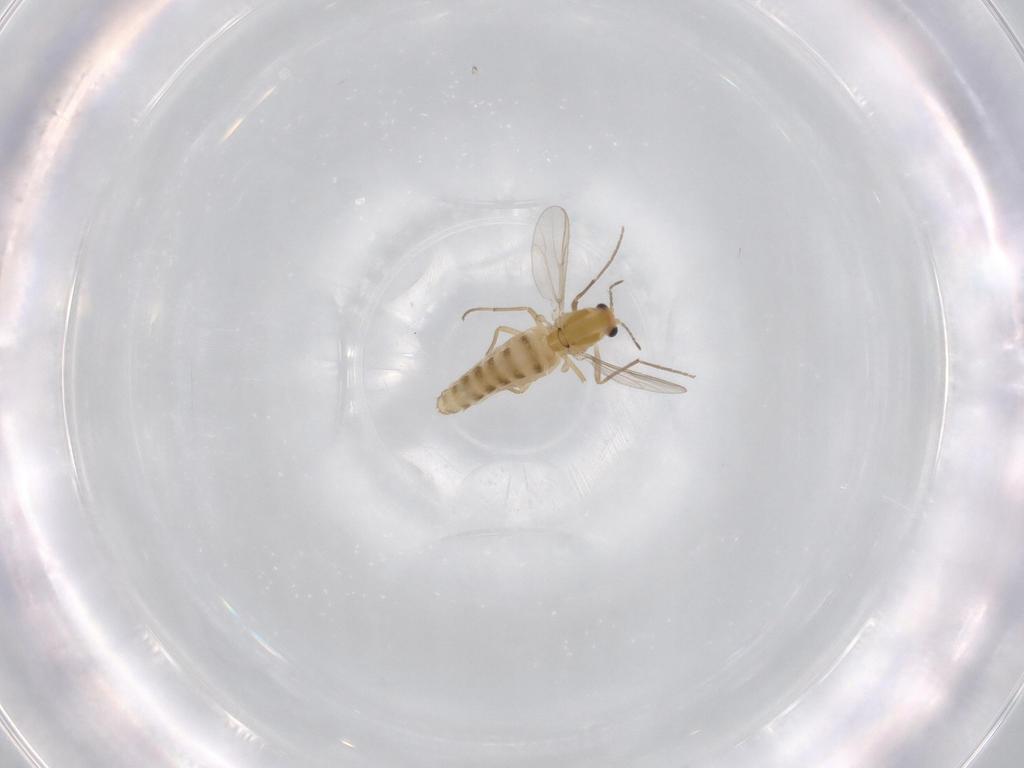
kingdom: Animalia
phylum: Arthropoda
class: Insecta
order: Diptera
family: Chironomidae
